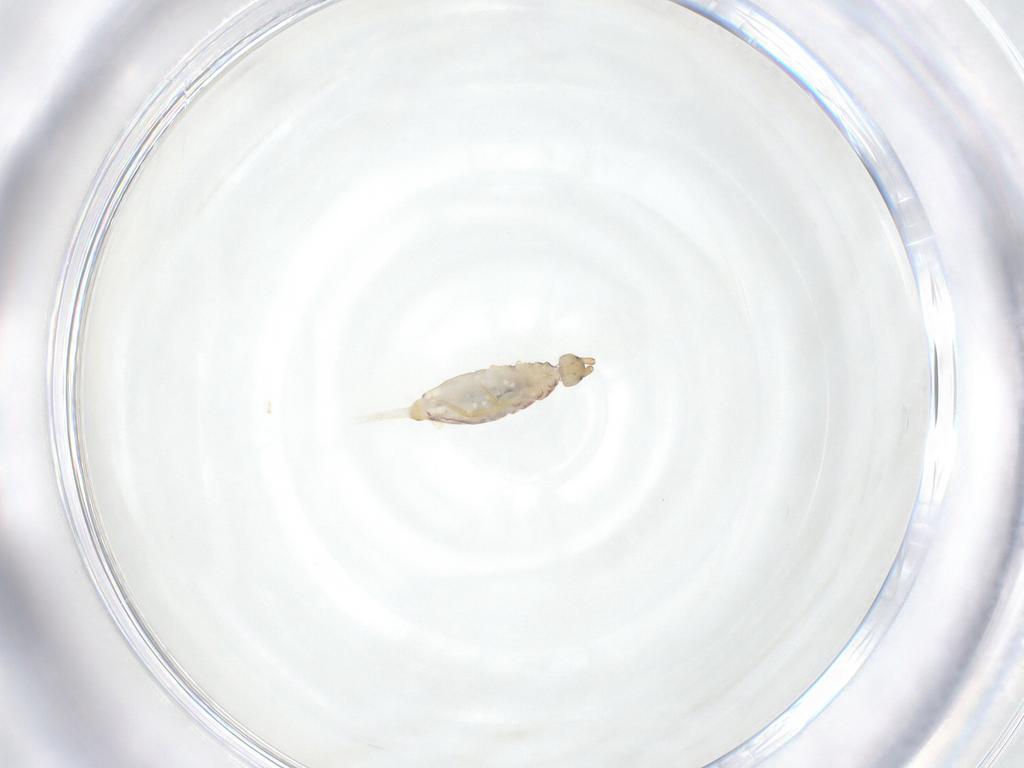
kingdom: Animalia
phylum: Arthropoda
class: Collembola
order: Entomobryomorpha
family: Entomobryidae
